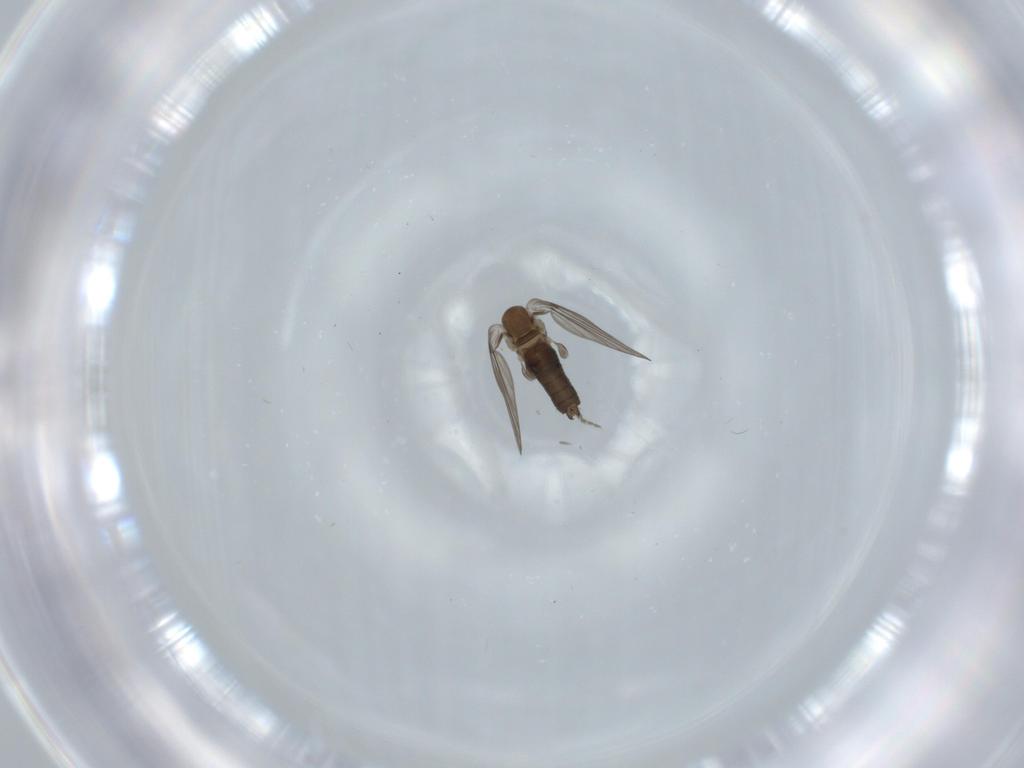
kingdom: Animalia
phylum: Arthropoda
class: Insecta
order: Diptera
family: Psychodidae
